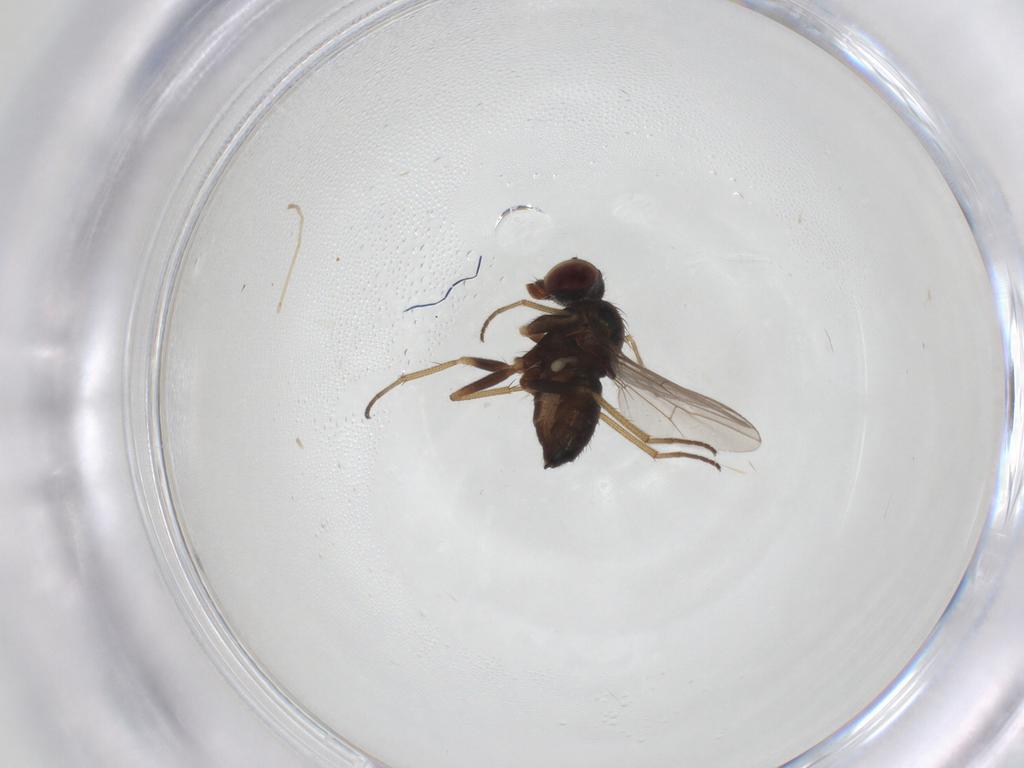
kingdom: Animalia
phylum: Arthropoda
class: Insecta
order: Diptera
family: Dolichopodidae
